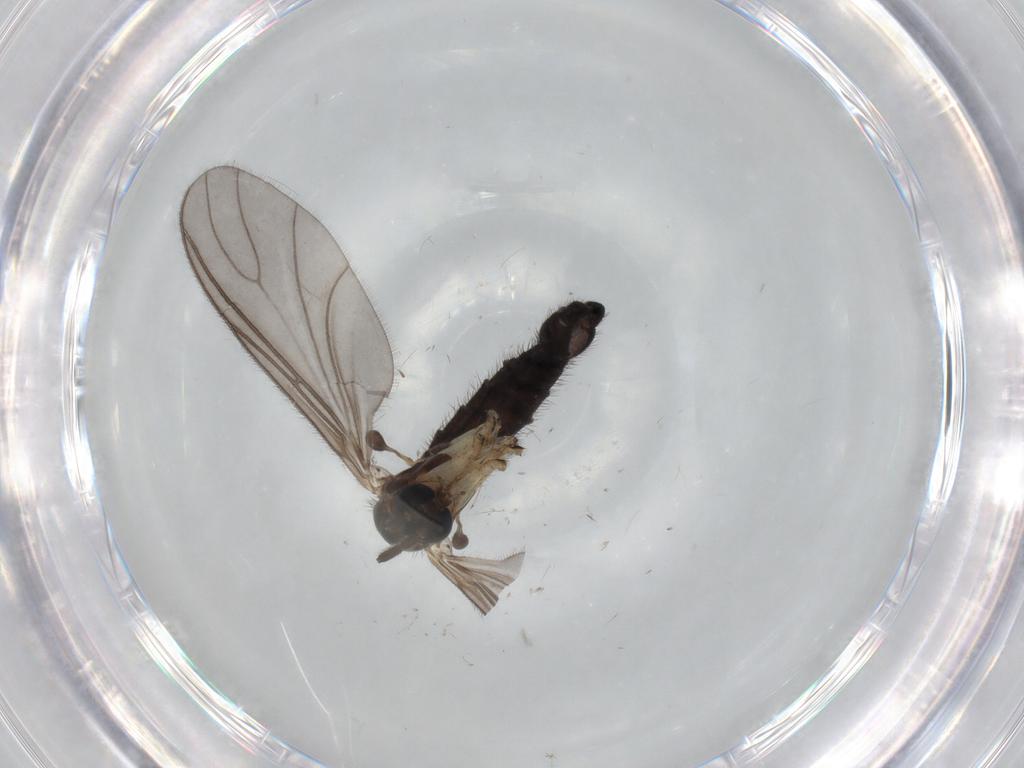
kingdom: Animalia
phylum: Arthropoda
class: Insecta
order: Diptera
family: Sciaridae
